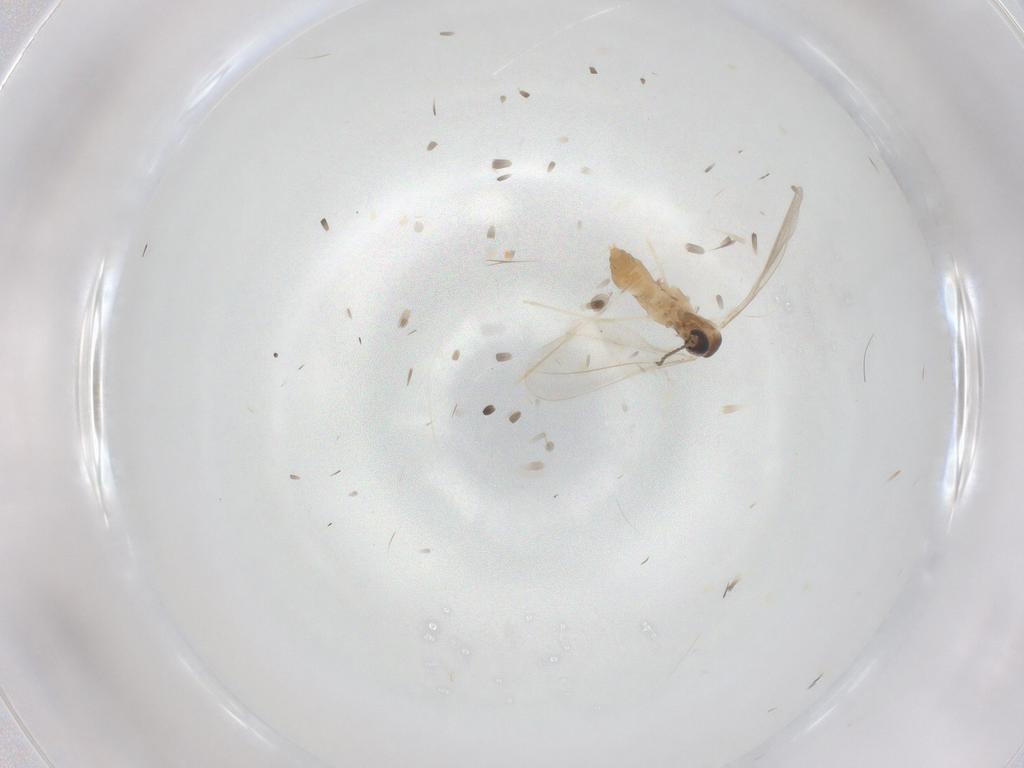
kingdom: Animalia
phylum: Arthropoda
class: Insecta
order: Diptera
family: Cecidomyiidae
